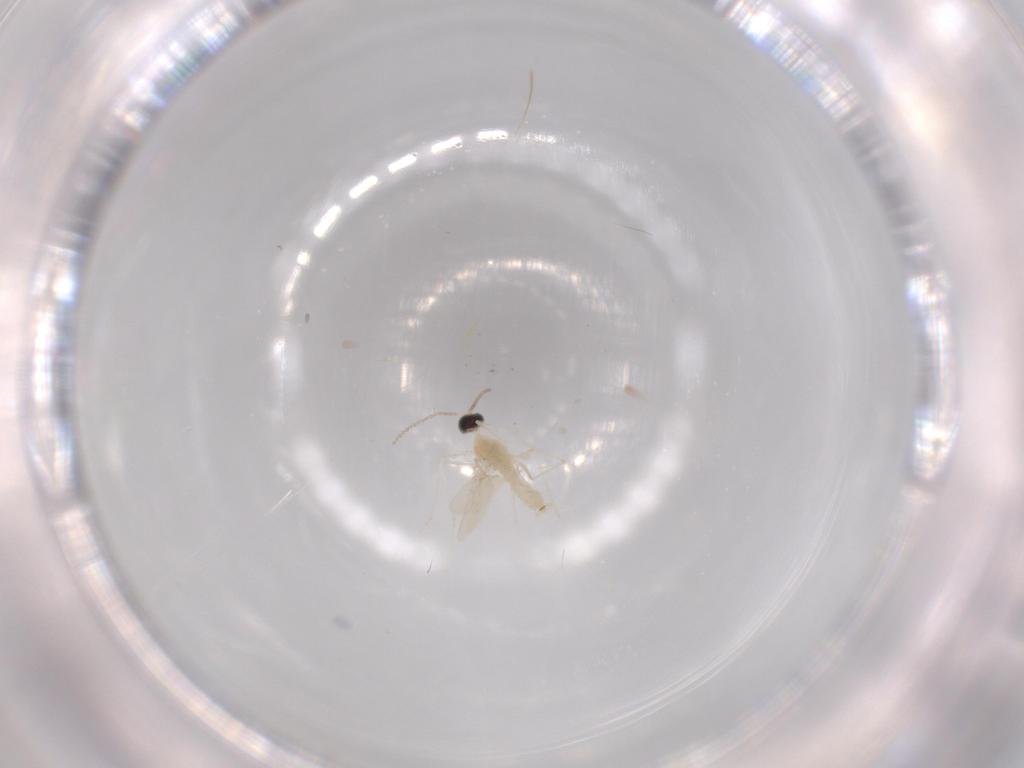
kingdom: Animalia
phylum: Arthropoda
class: Insecta
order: Diptera
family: Cecidomyiidae
